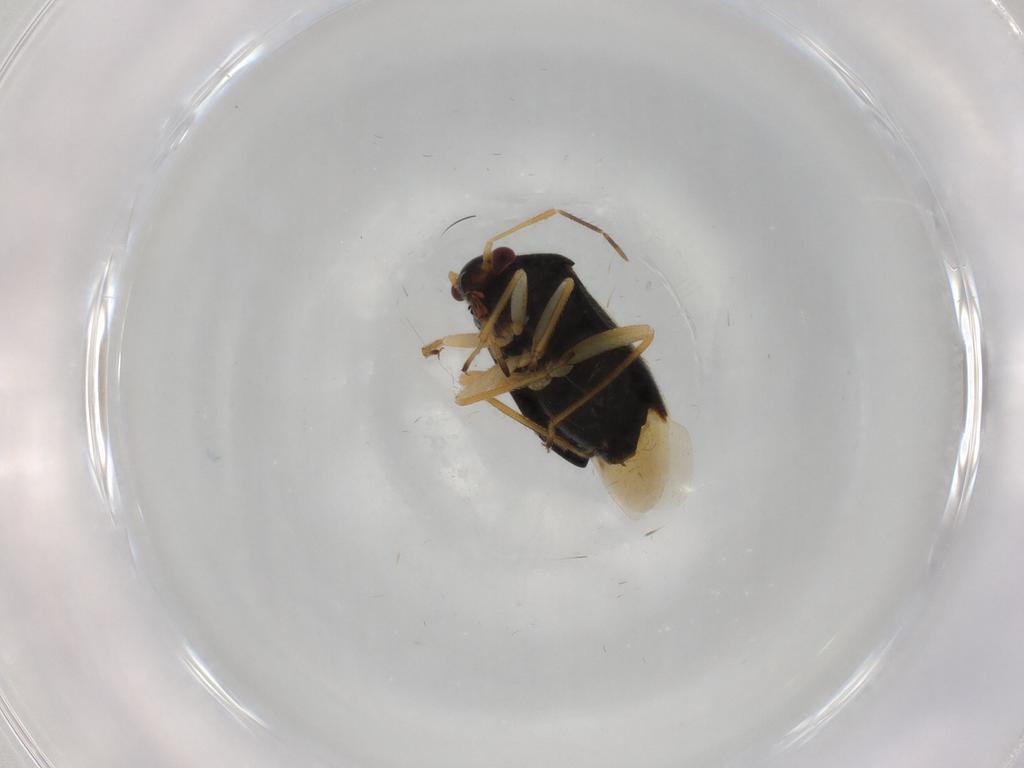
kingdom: Animalia
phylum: Arthropoda
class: Insecta
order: Hemiptera
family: Miridae
